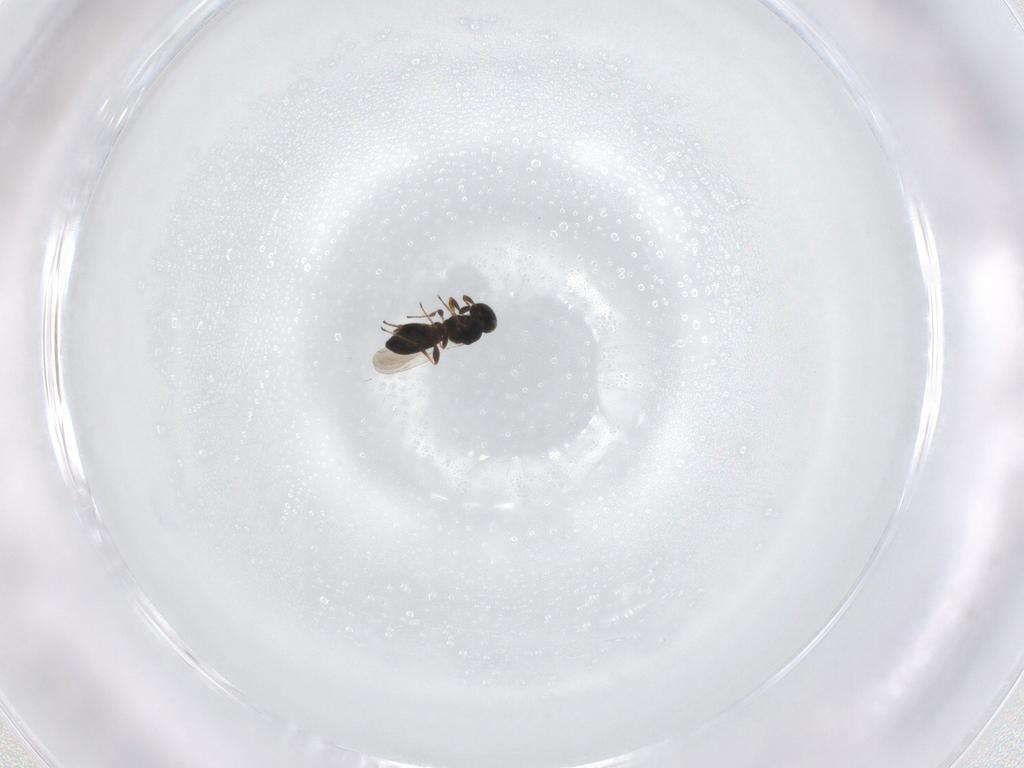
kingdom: Animalia
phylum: Arthropoda
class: Insecta
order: Hymenoptera
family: Platygastridae
